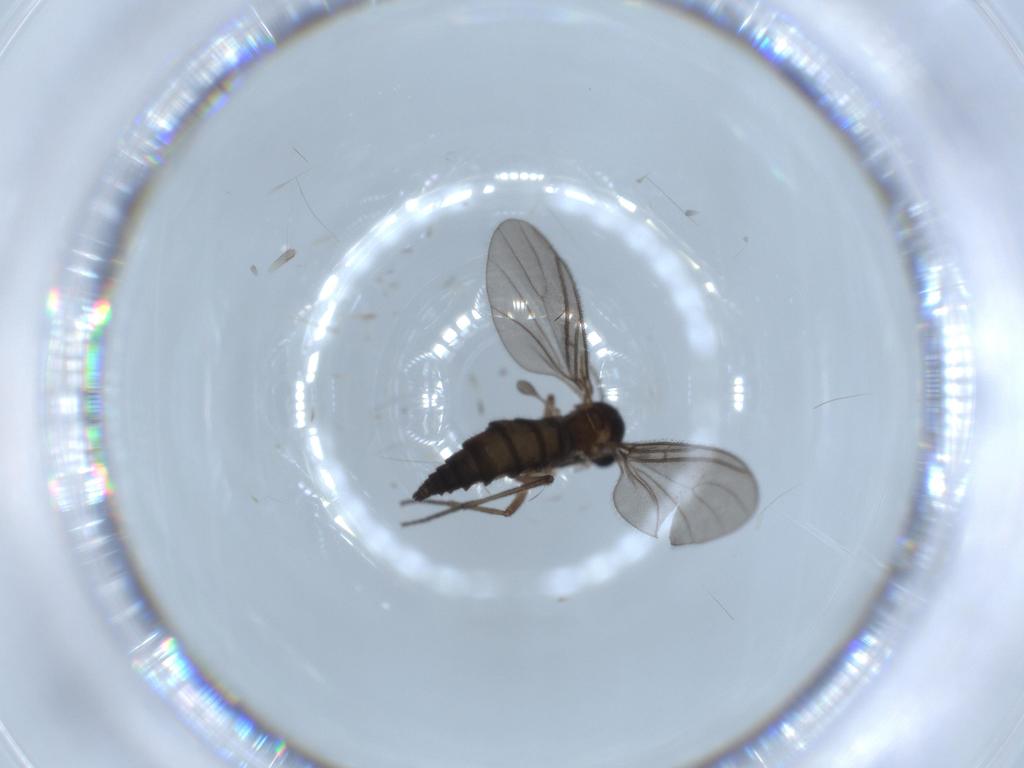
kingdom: Animalia
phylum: Arthropoda
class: Insecta
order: Diptera
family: Sciaridae
